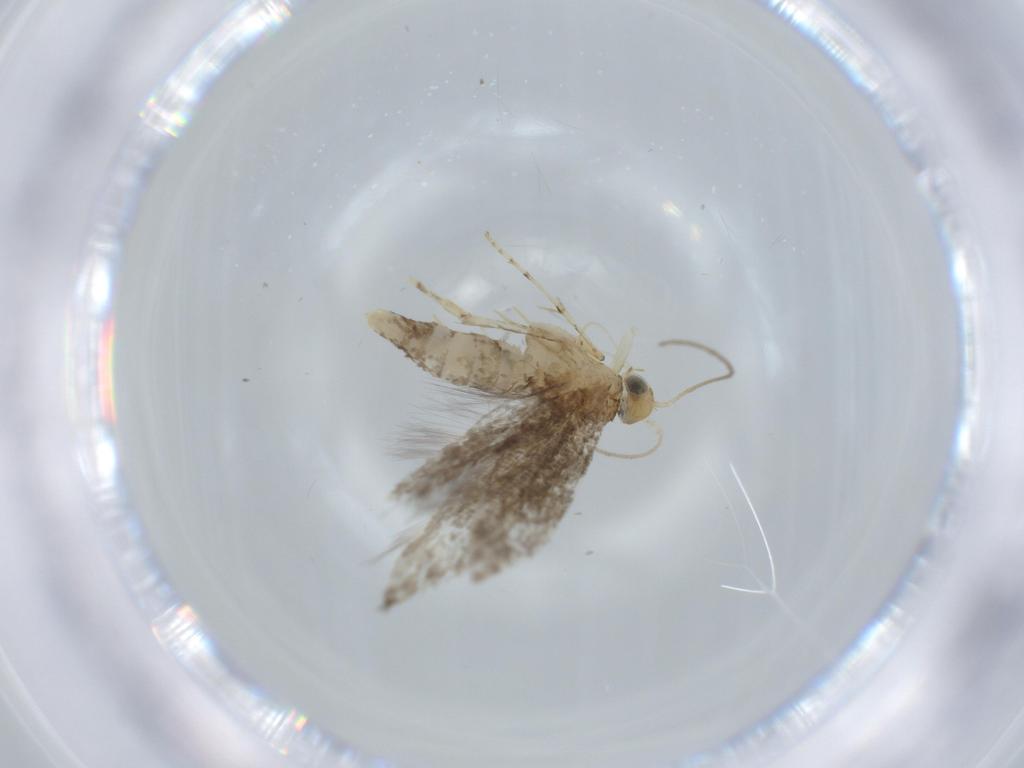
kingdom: Animalia
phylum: Arthropoda
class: Insecta
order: Lepidoptera
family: Argyresthiidae
